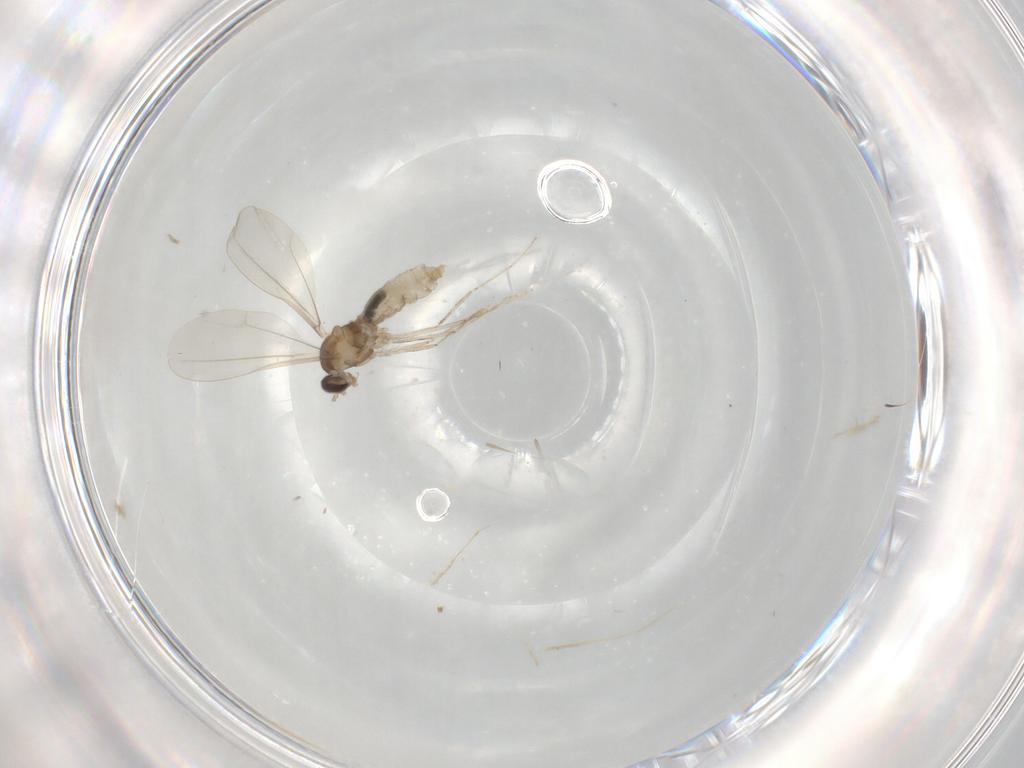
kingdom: Animalia
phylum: Arthropoda
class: Insecta
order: Diptera
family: Cecidomyiidae
